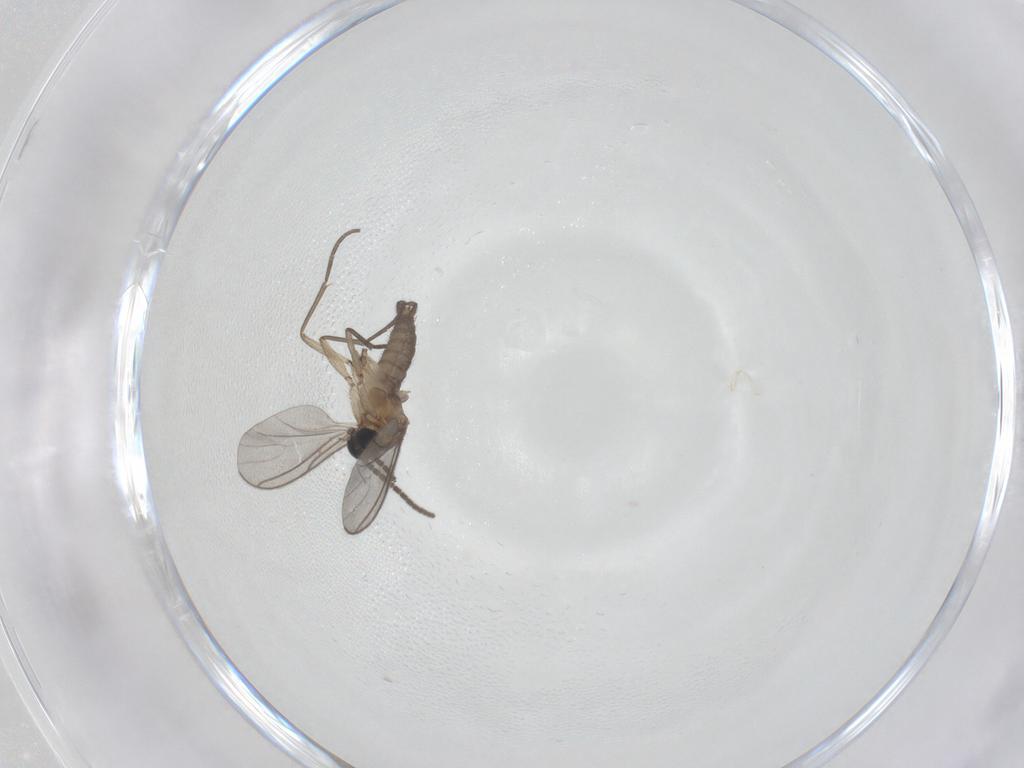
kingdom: Animalia
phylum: Arthropoda
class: Insecta
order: Diptera
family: Sciaridae
